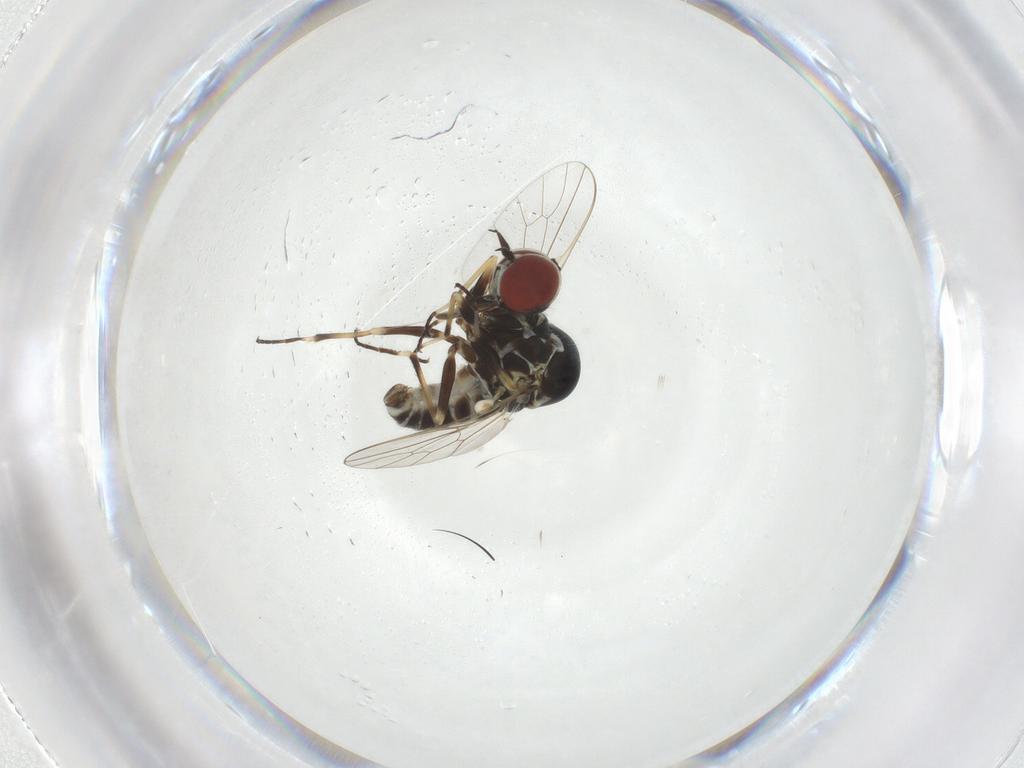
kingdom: Animalia
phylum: Arthropoda
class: Insecta
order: Diptera
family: Mythicomyiidae
